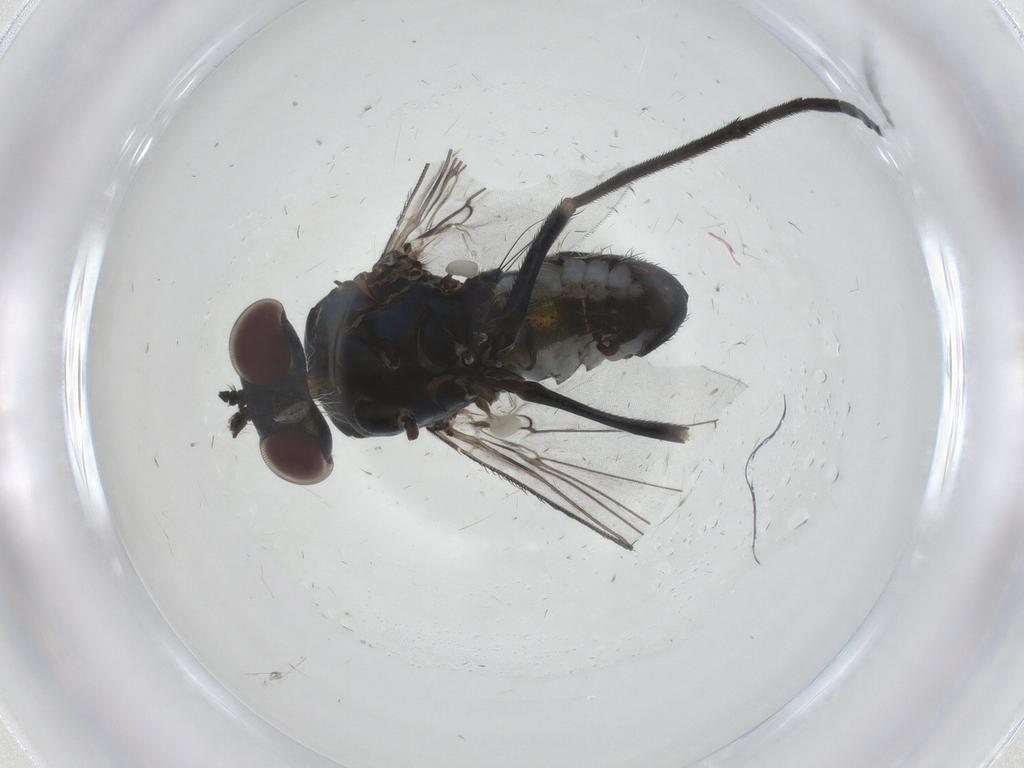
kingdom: Animalia
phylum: Arthropoda
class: Insecta
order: Diptera
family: Dolichopodidae
